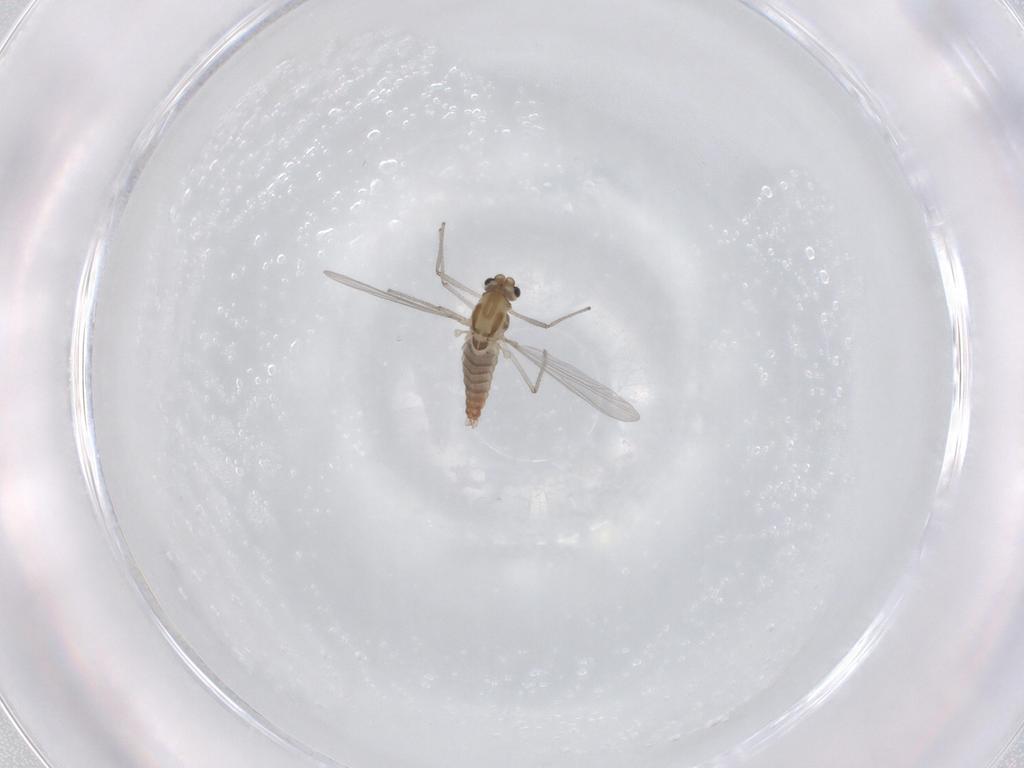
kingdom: Animalia
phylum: Arthropoda
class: Insecta
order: Diptera
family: Cecidomyiidae
